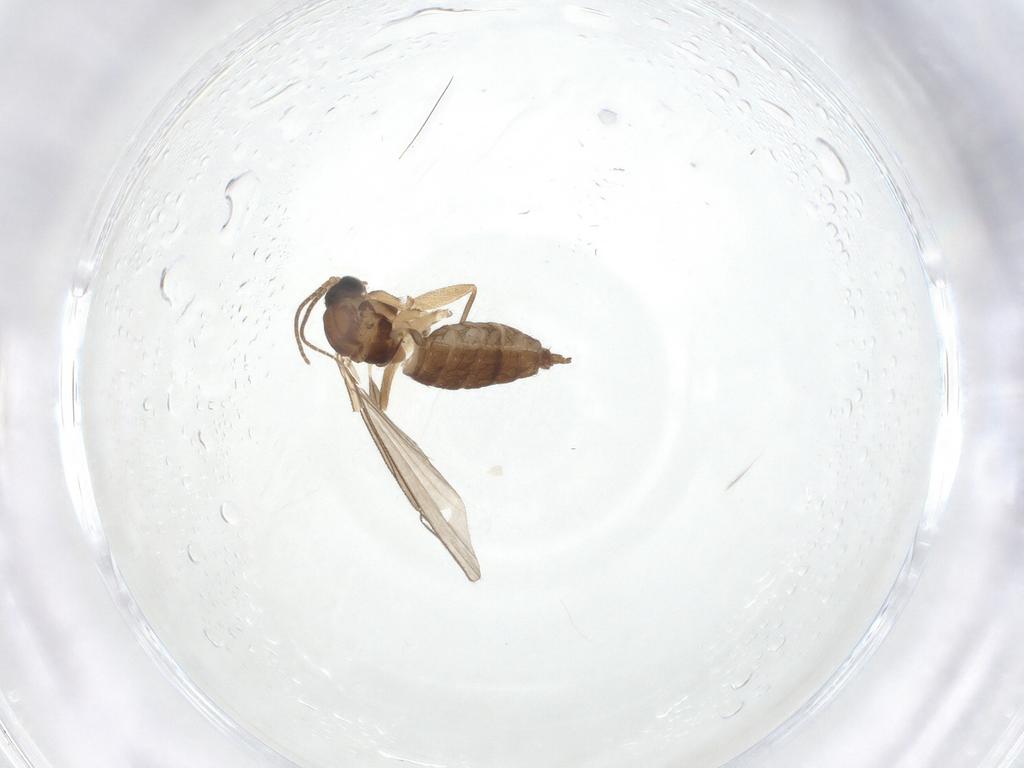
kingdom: Animalia
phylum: Arthropoda
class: Insecta
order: Diptera
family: Sciaridae
